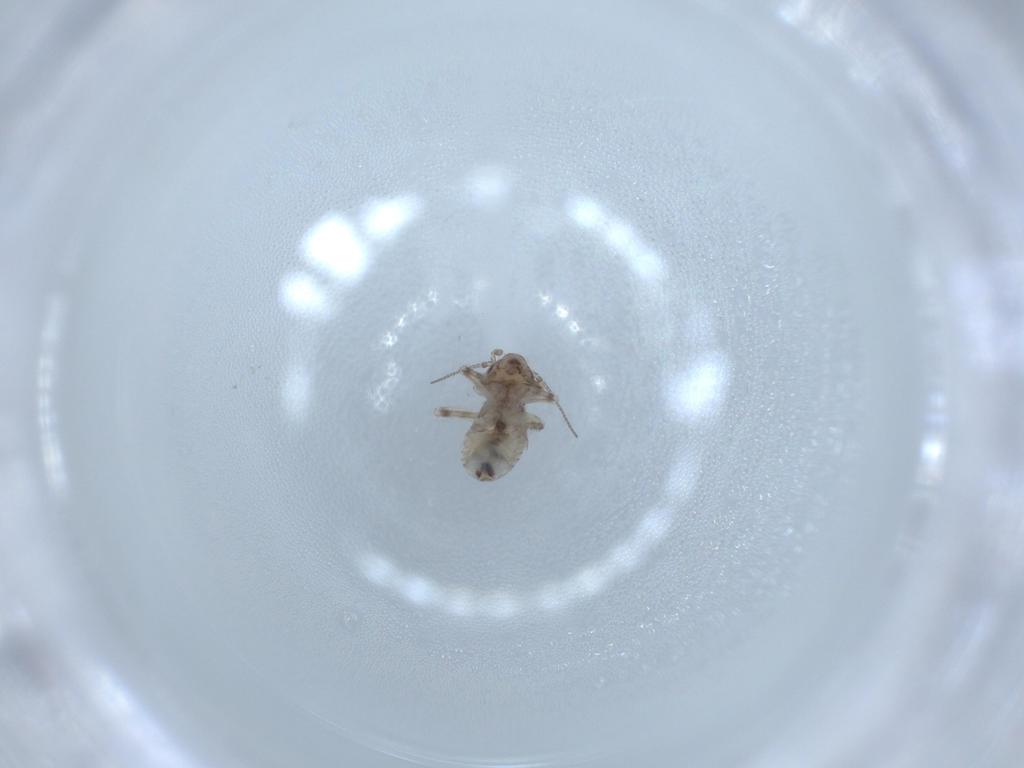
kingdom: Animalia
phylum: Arthropoda
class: Insecta
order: Psocodea
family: Lepidopsocidae
